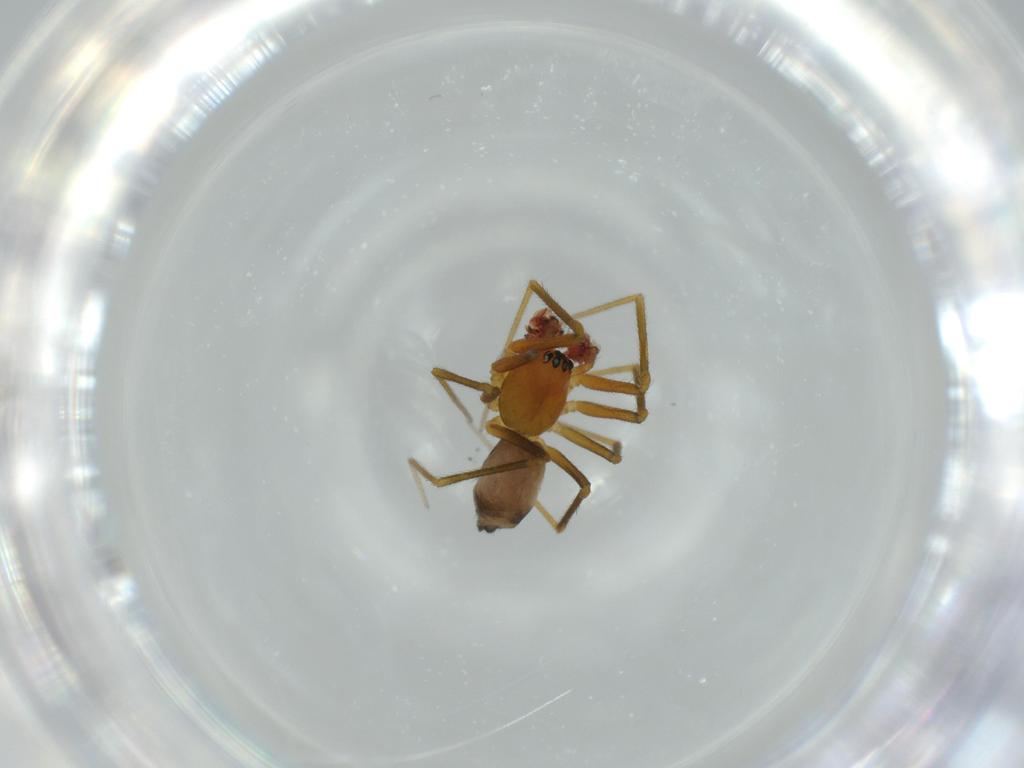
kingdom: Animalia
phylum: Arthropoda
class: Arachnida
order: Araneae
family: Linyphiidae
